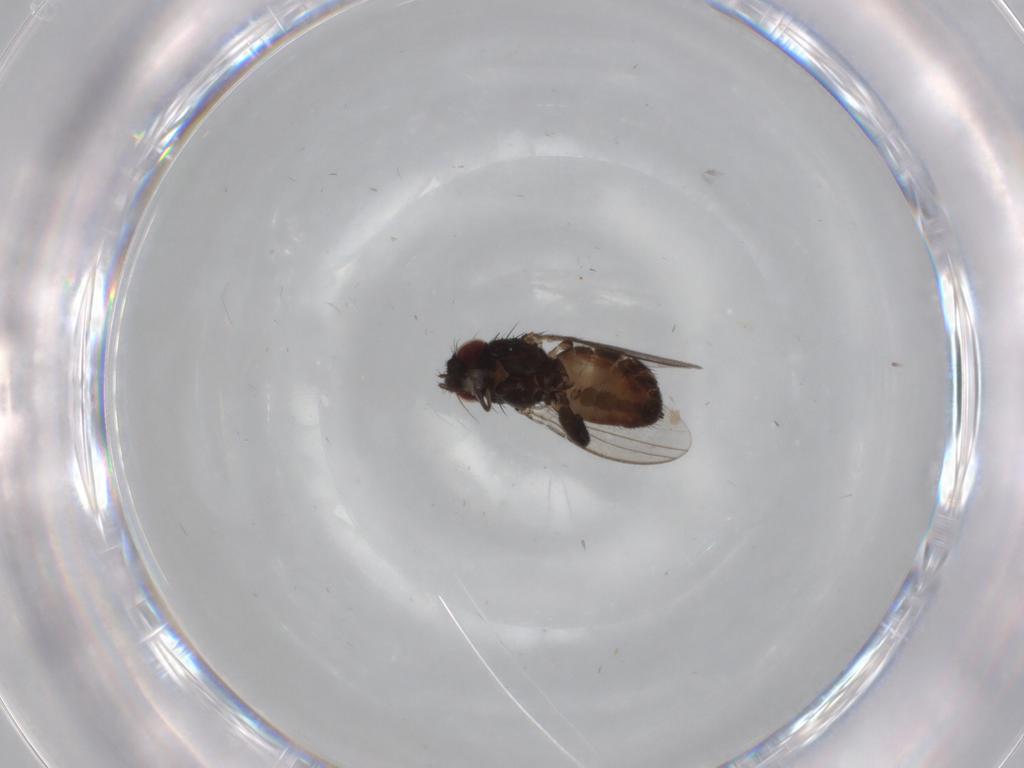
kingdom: Animalia
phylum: Arthropoda
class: Insecta
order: Diptera
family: Milichiidae
